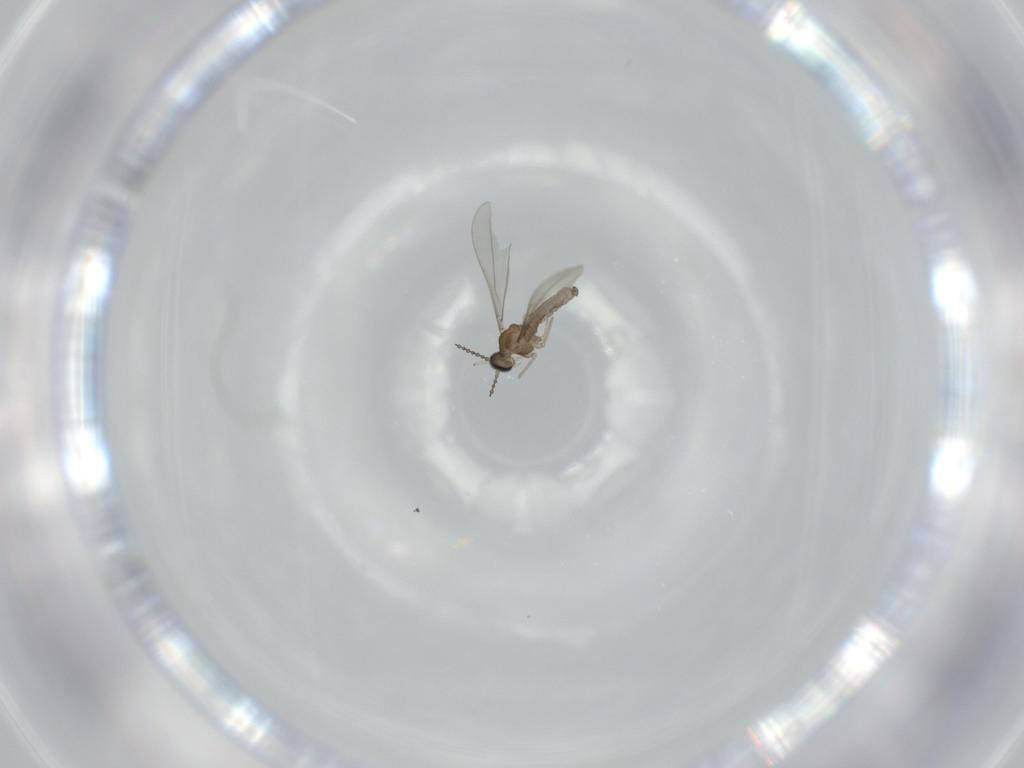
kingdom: Animalia
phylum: Arthropoda
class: Insecta
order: Diptera
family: Cecidomyiidae
